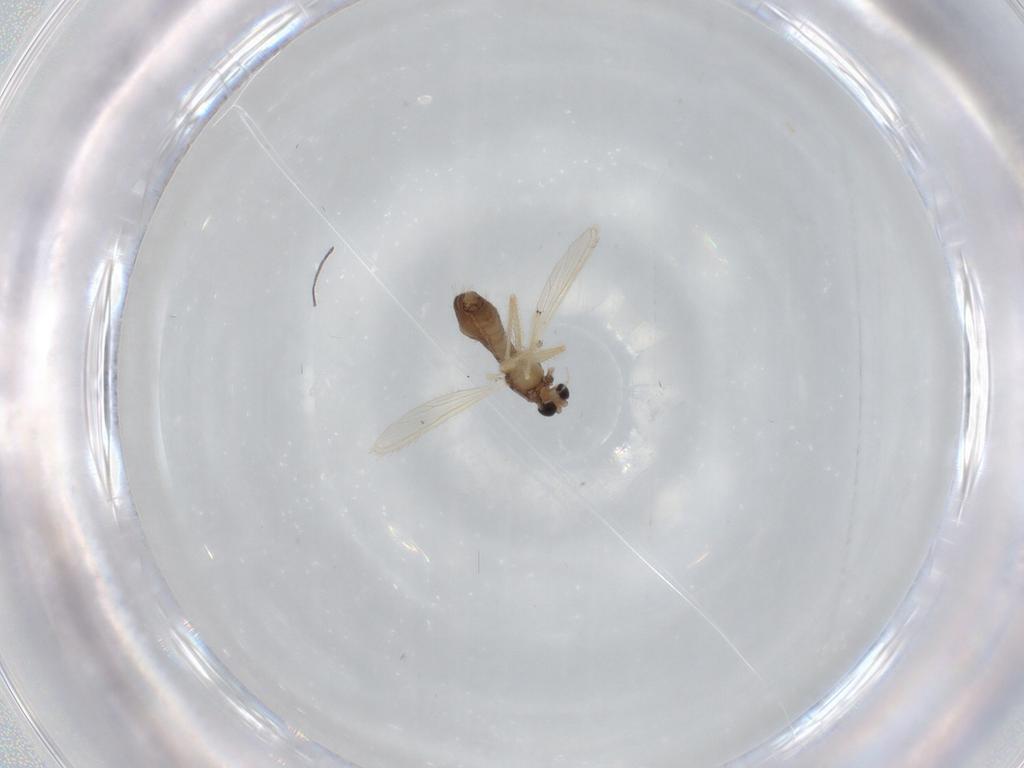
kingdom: Animalia
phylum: Arthropoda
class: Insecta
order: Diptera
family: Chironomidae
